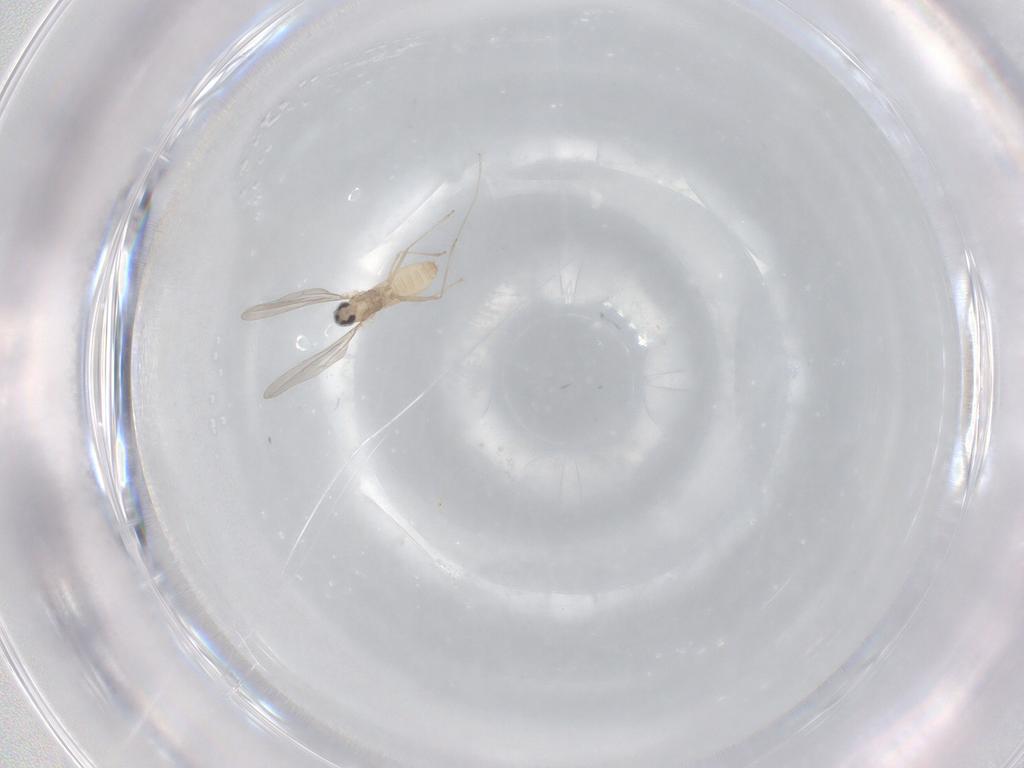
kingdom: Animalia
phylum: Arthropoda
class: Insecta
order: Diptera
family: Cecidomyiidae
